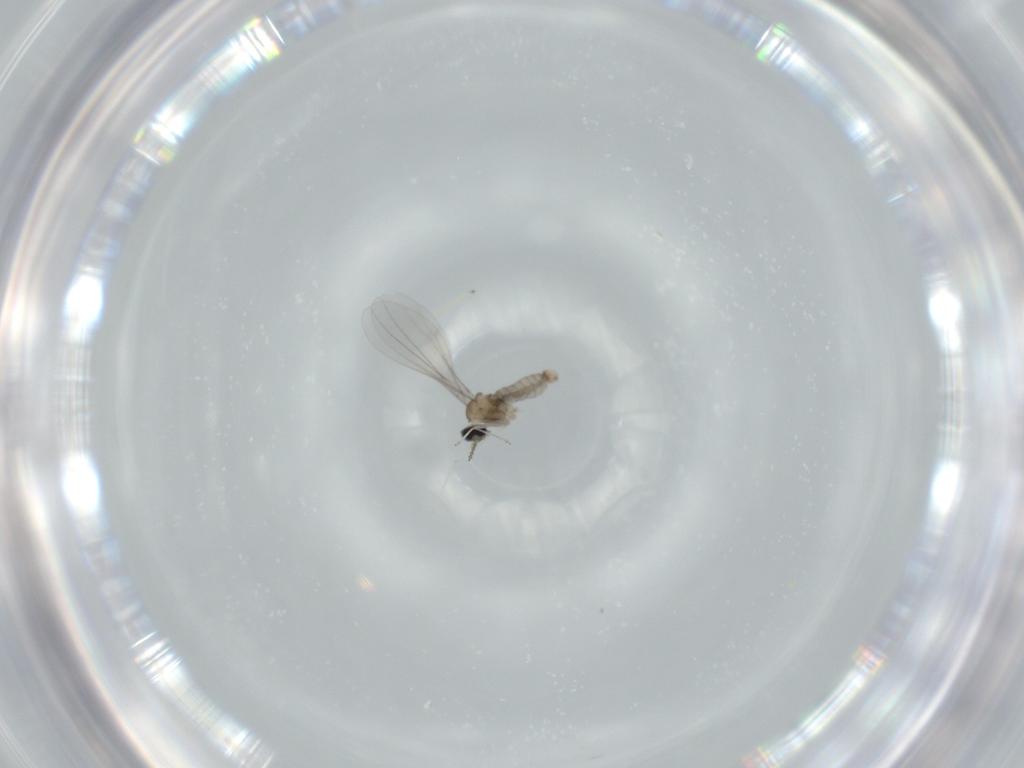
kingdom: Animalia
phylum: Arthropoda
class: Insecta
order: Diptera
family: Cecidomyiidae
